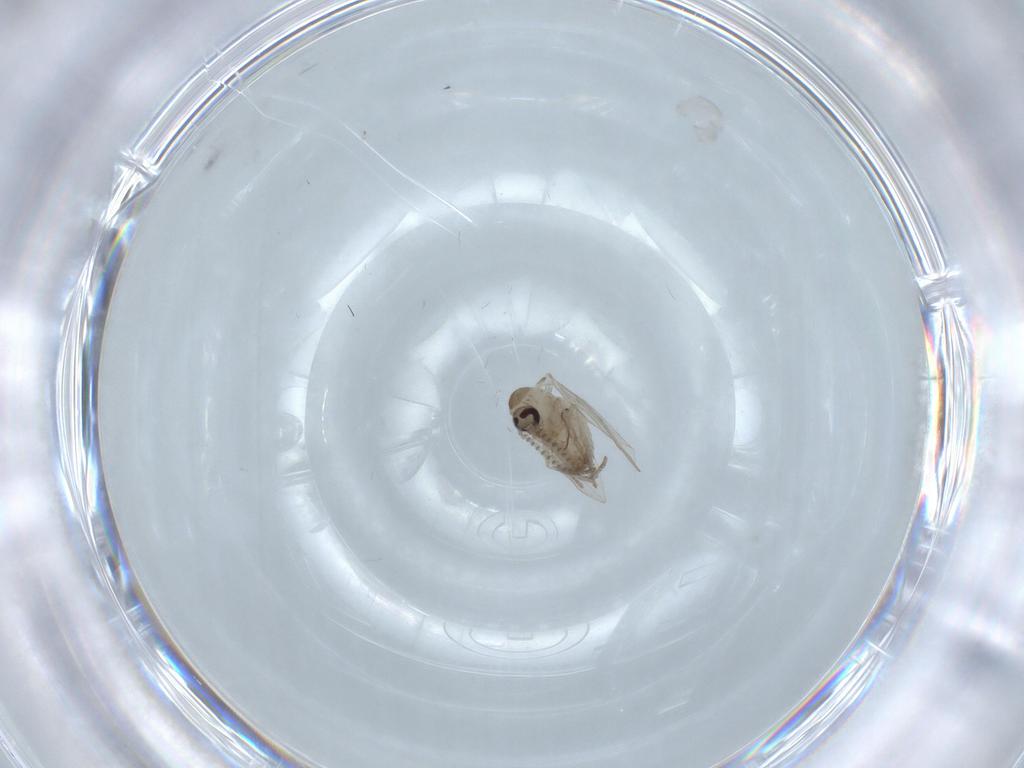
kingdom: Animalia
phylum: Arthropoda
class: Insecta
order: Diptera
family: Psychodidae
